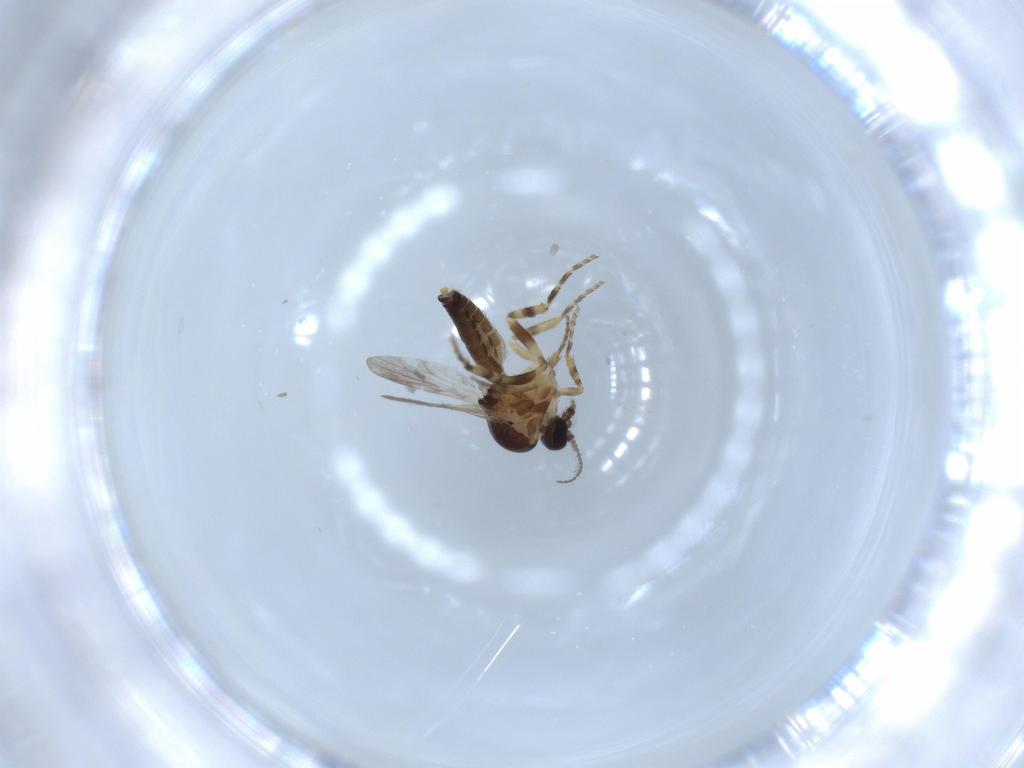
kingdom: Animalia
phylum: Arthropoda
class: Insecta
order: Diptera
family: Ceratopogonidae
